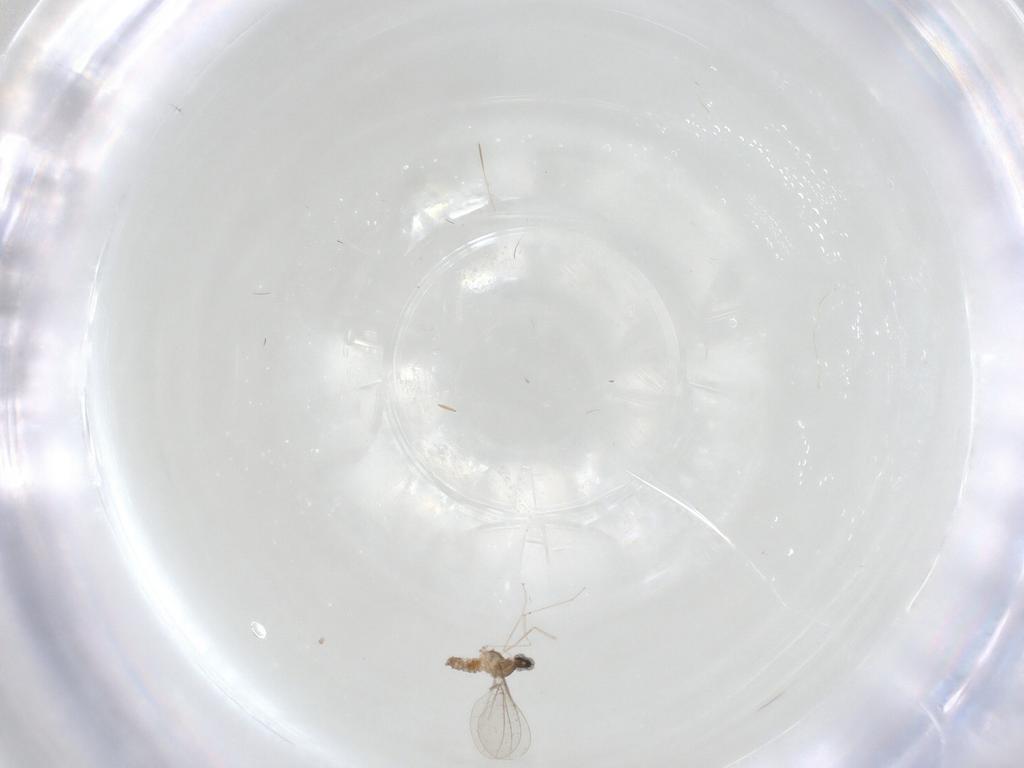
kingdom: Animalia
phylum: Arthropoda
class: Insecta
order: Diptera
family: Cecidomyiidae
